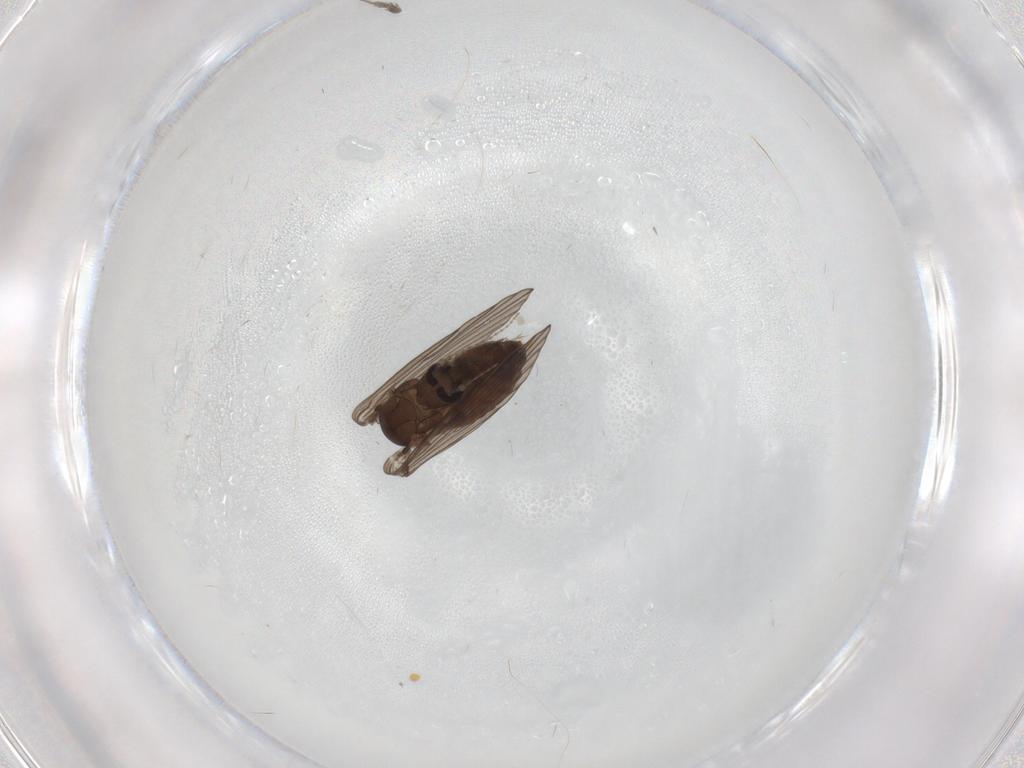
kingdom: Animalia
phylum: Arthropoda
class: Insecta
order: Diptera
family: Psychodidae
